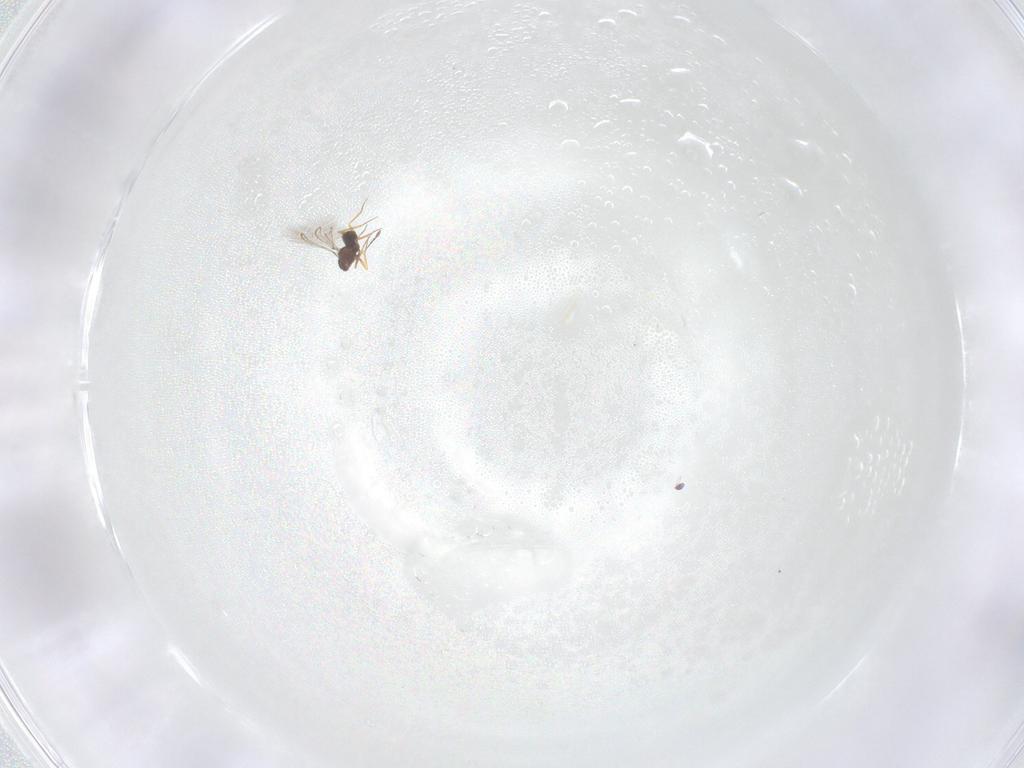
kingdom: Animalia
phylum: Arthropoda
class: Insecta
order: Hymenoptera
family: Mymaridae
